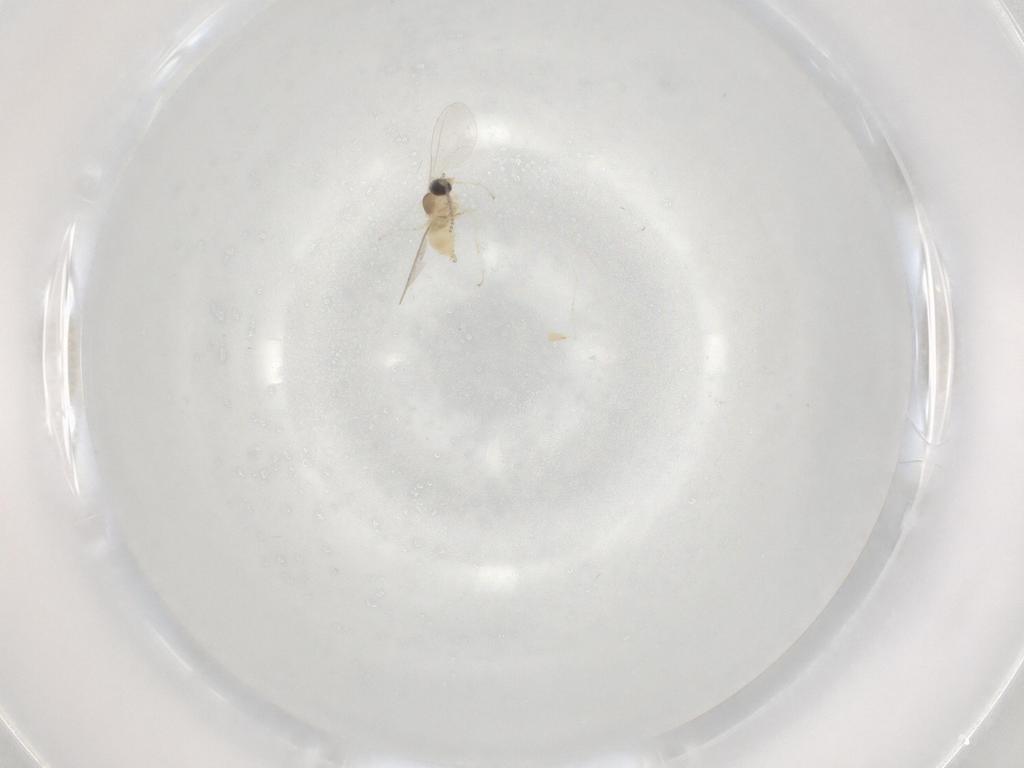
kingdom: Animalia
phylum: Arthropoda
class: Insecta
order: Diptera
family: Cecidomyiidae
